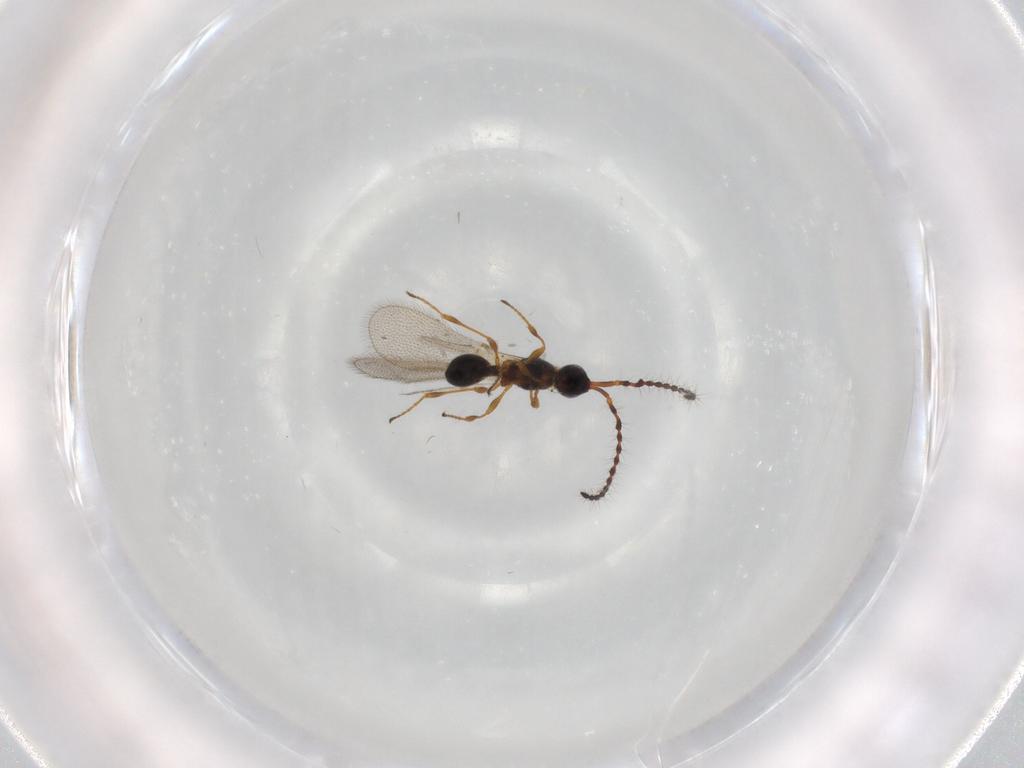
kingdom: Animalia
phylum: Arthropoda
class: Insecta
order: Hymenoptera
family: Diapriidae
